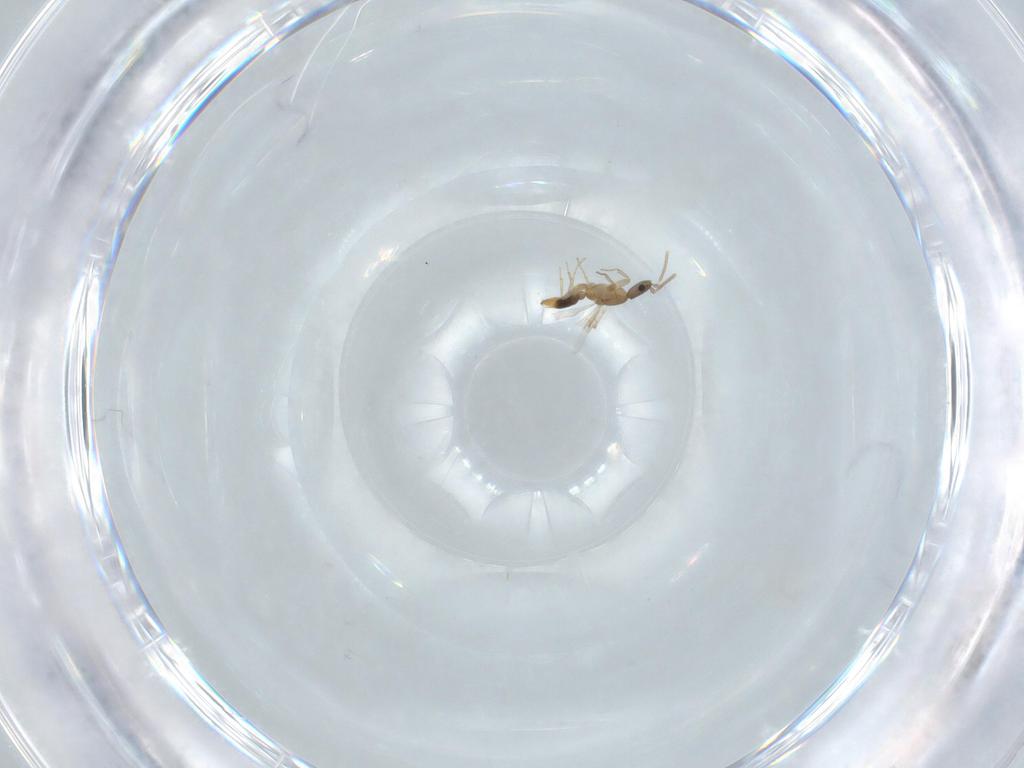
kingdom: Animalia
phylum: Arthropoda
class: Insecta
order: Hymenoptera
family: Formicidae
